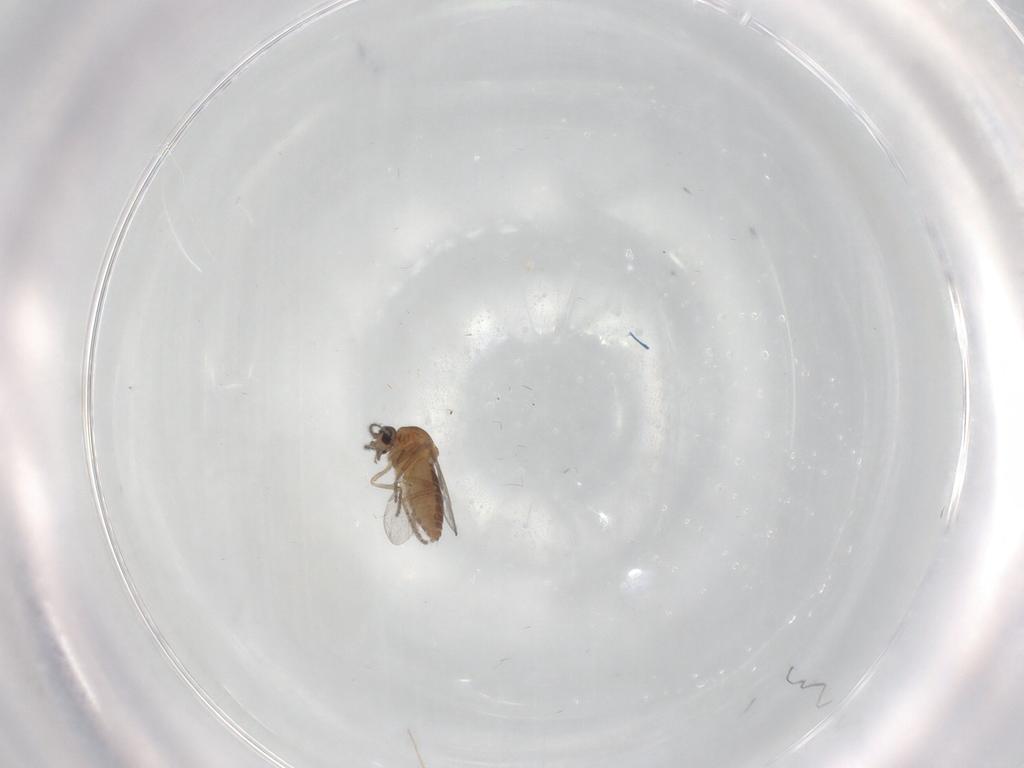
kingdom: Animalia
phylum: Arthropoda
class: Insecta
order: Diptera
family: Ceratopogonidae
